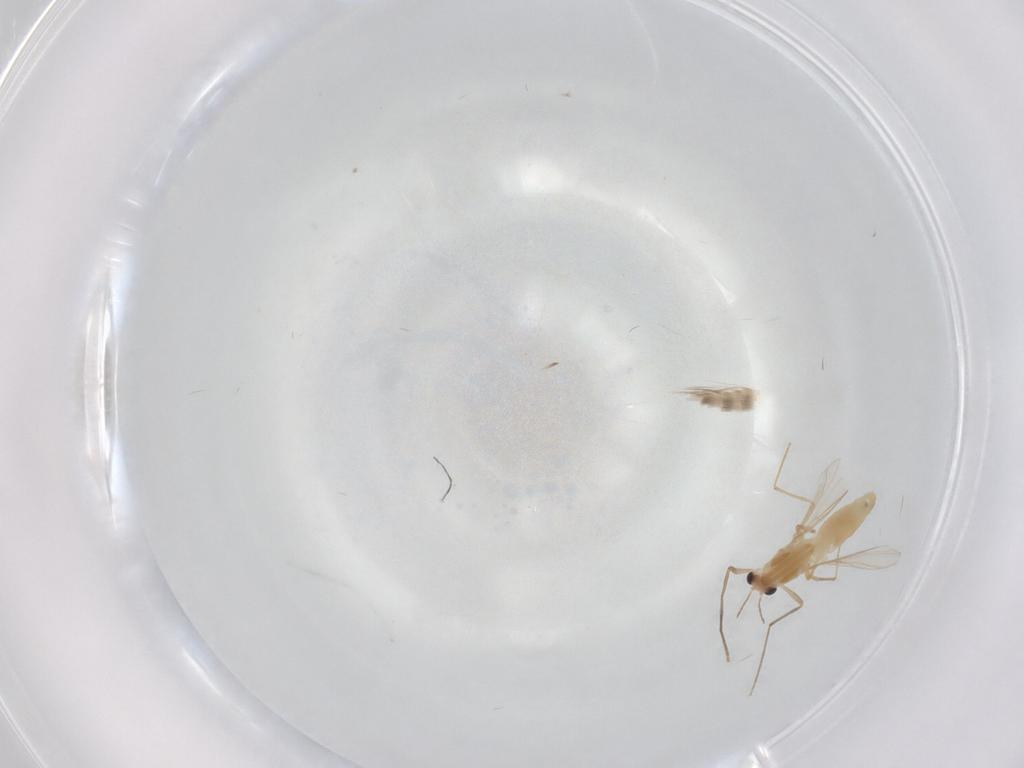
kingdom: Animalia
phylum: Arthropoda
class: Insecta
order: Diptera
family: Chironomidae
